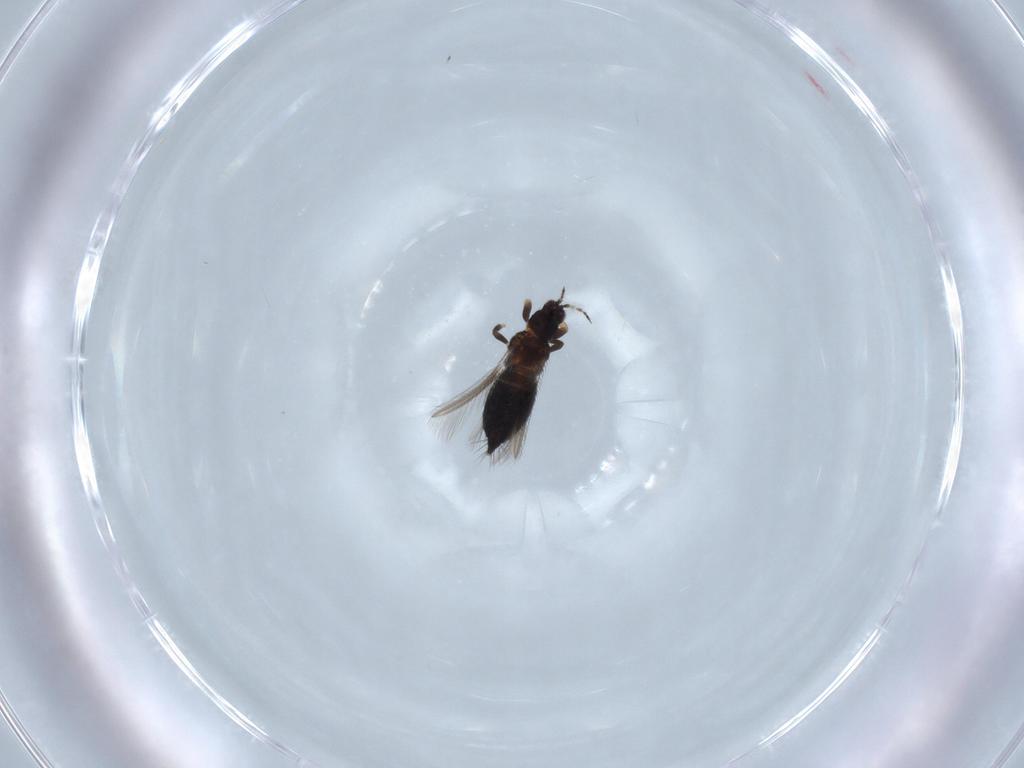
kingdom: Animalia
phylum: Arthropoda
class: Insecta
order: Thysanoptera
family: Thripidae
